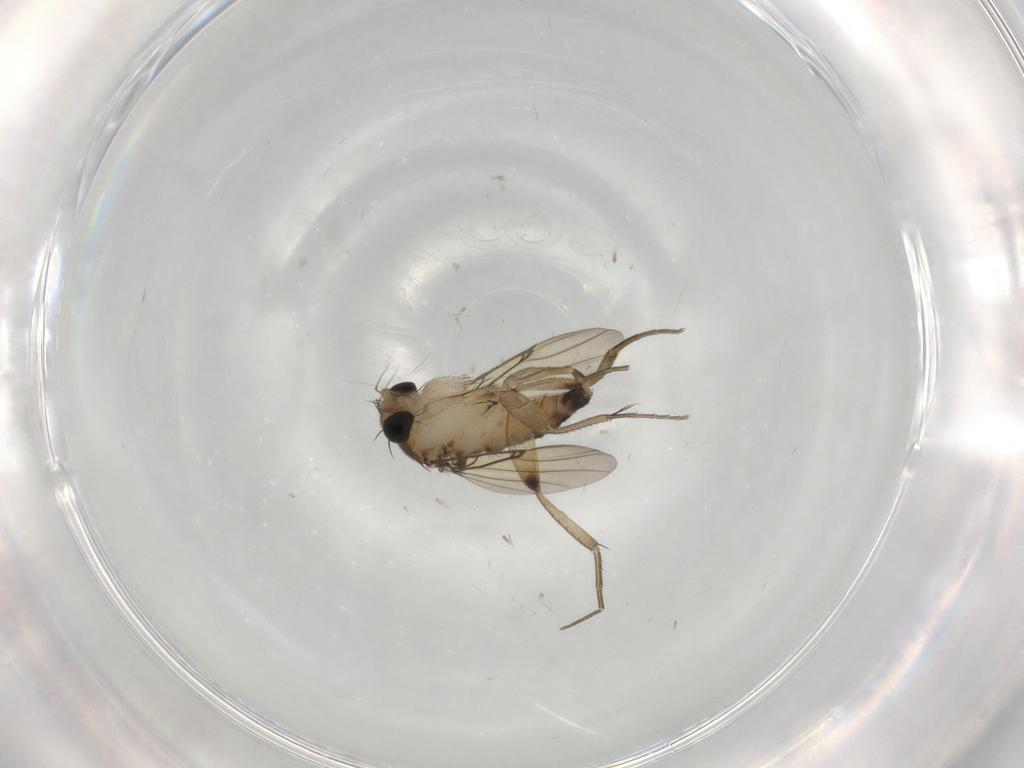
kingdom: Animalia
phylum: Arthropoda
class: Insecta
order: Diptera
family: Phoridae
